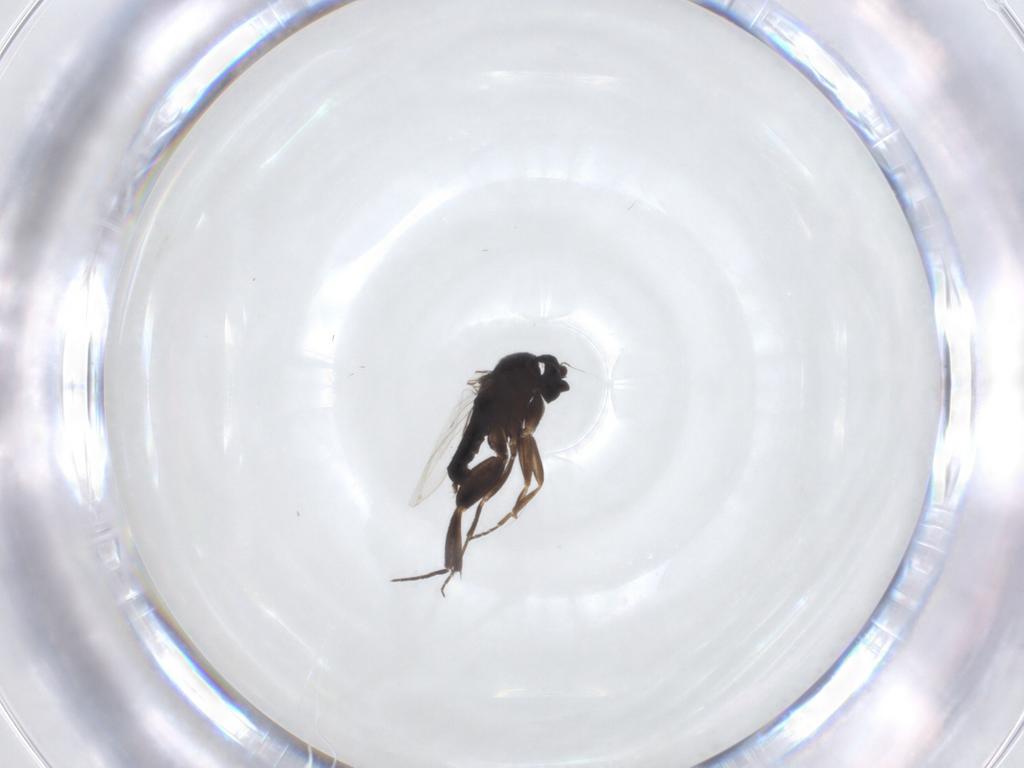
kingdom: Animalia
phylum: Arthropoda
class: Insecta
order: Diptera
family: Phoridae
